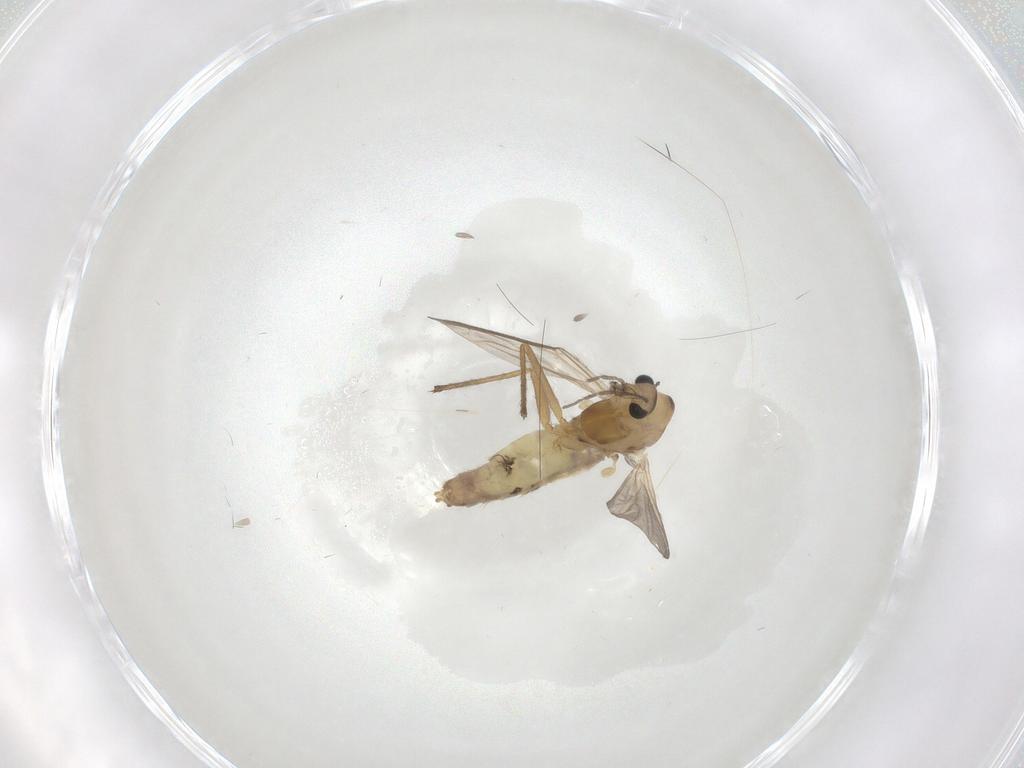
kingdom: Animalia
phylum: Arthropoda
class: Insecta
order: Diptera
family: Chironomidae
